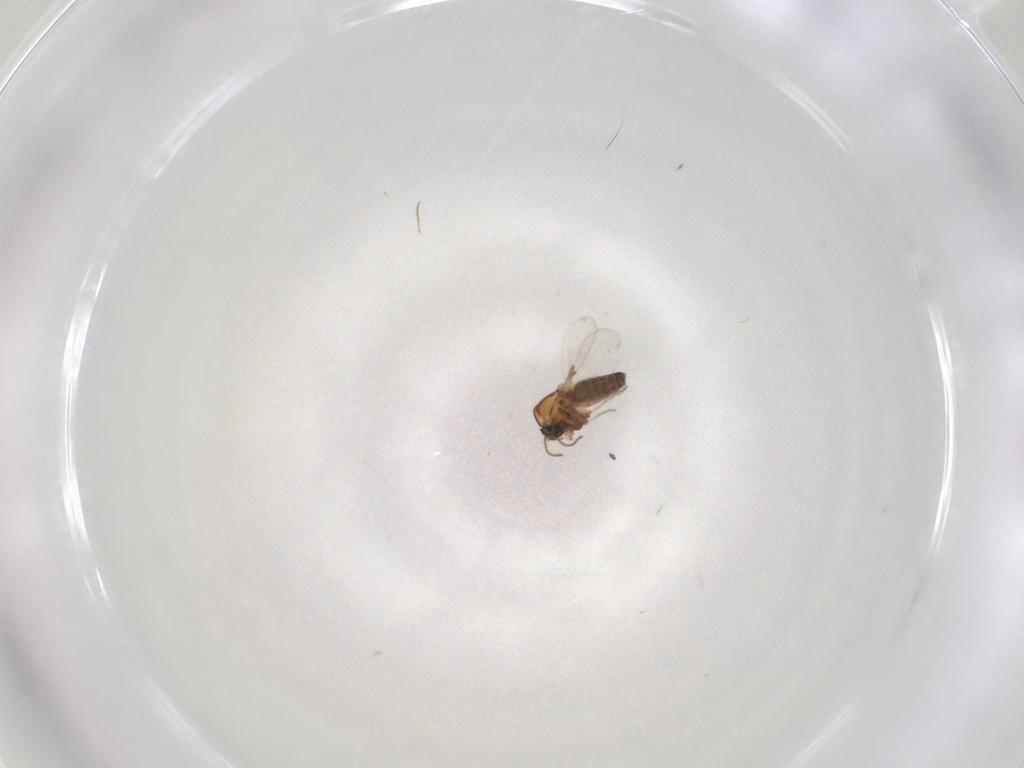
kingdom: Animalia
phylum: Arthropoda
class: Insecta
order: Diptera
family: Ceratopogonidae
